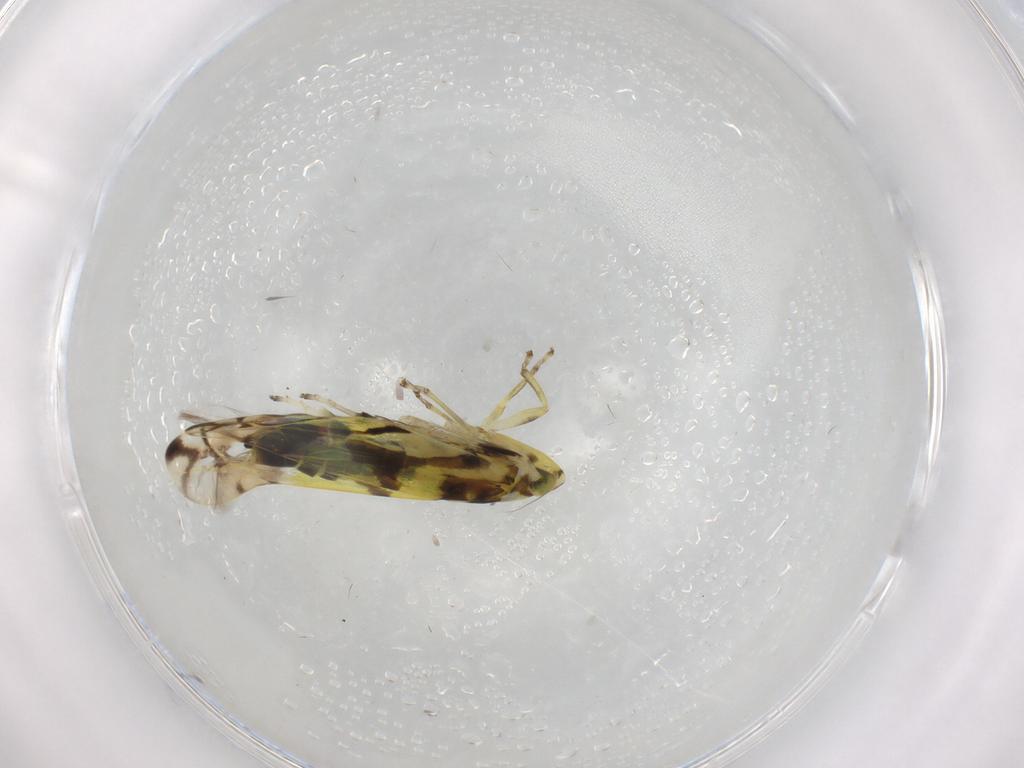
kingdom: Animalia
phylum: Arthropoda
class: Insecta
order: Hemiptera
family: Cicadellidae
